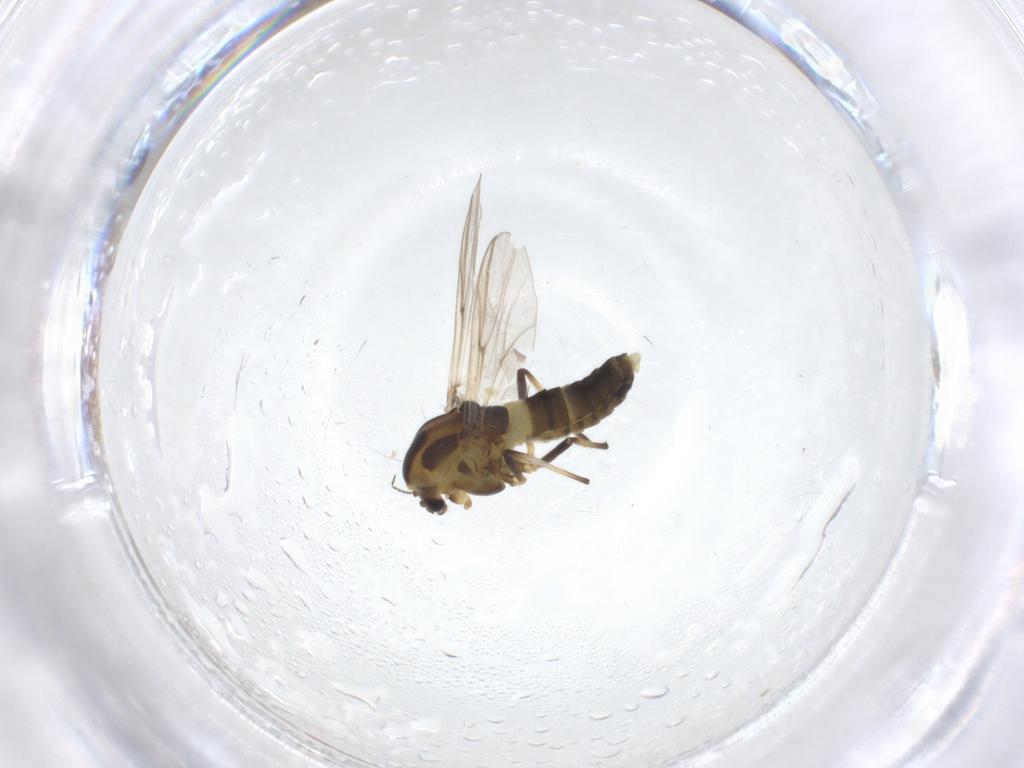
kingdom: Animalia
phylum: Arthropoda
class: Insecta
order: Diptera
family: Chironomidae
